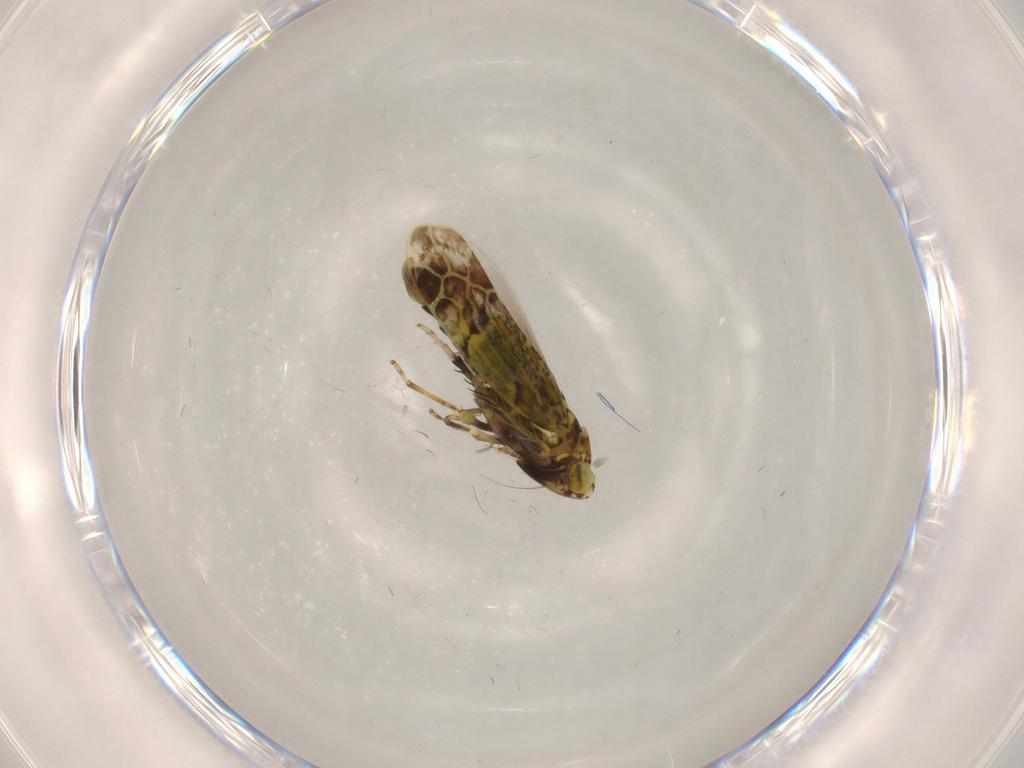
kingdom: Animalia
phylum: Arthropoda
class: Insecta
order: Hemiptera
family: Cicadellidae
